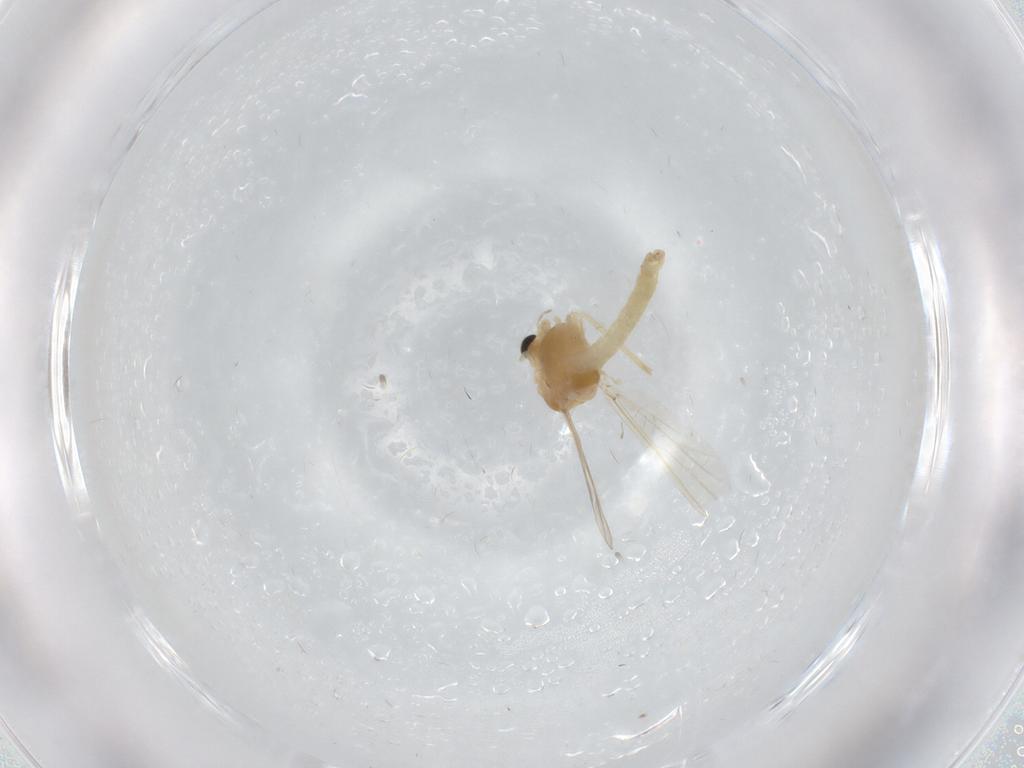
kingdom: Animalia
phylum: Arthropoda
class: Insecta
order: Diptera
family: Chironomidae
